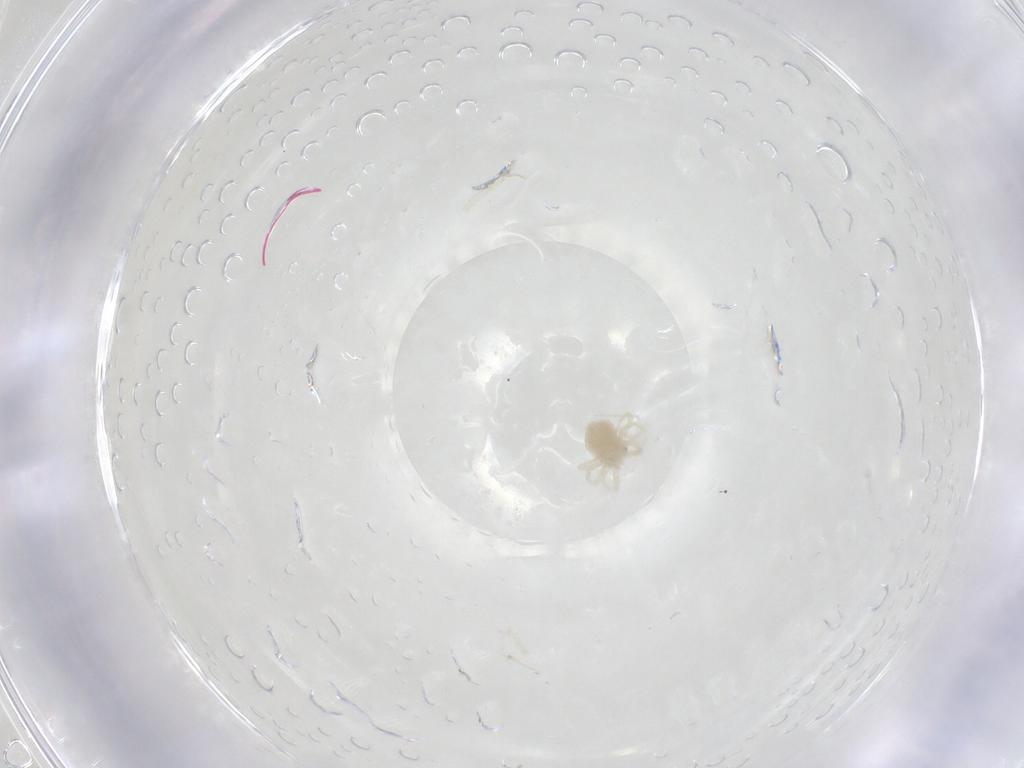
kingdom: Animalia
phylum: Arthropoda
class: Arachnida
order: Trombidiformes
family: Anystidae
